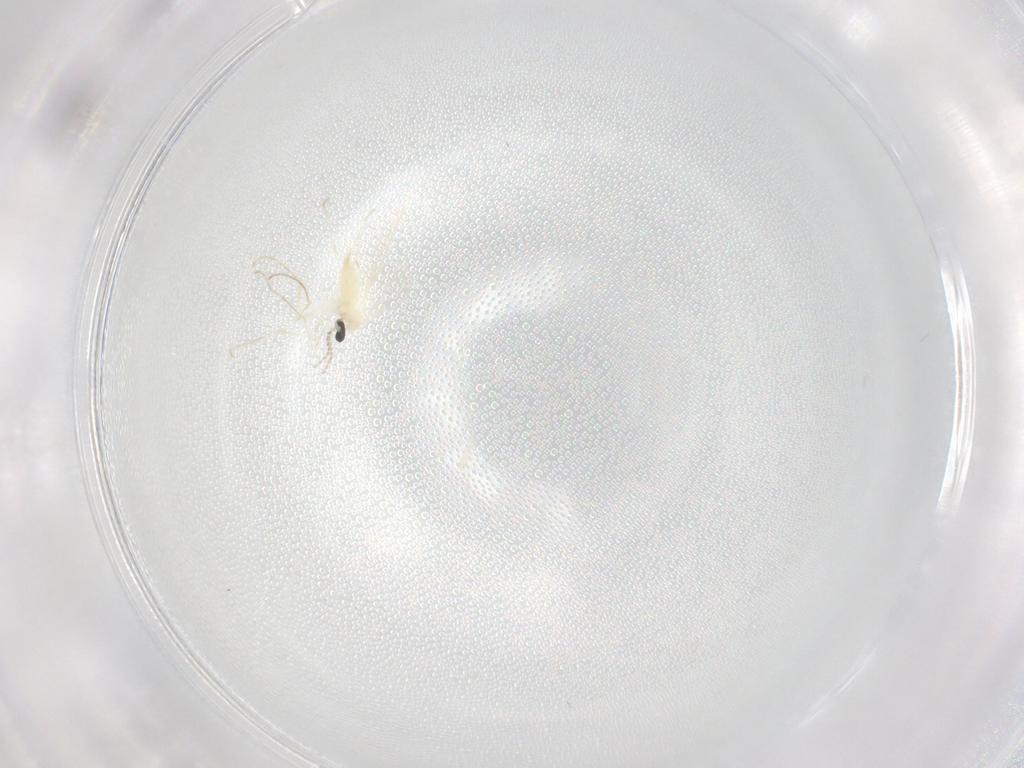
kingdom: Animalia
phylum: Arthropoda
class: Insecta
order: Diptera
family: Cecidomyiidae
